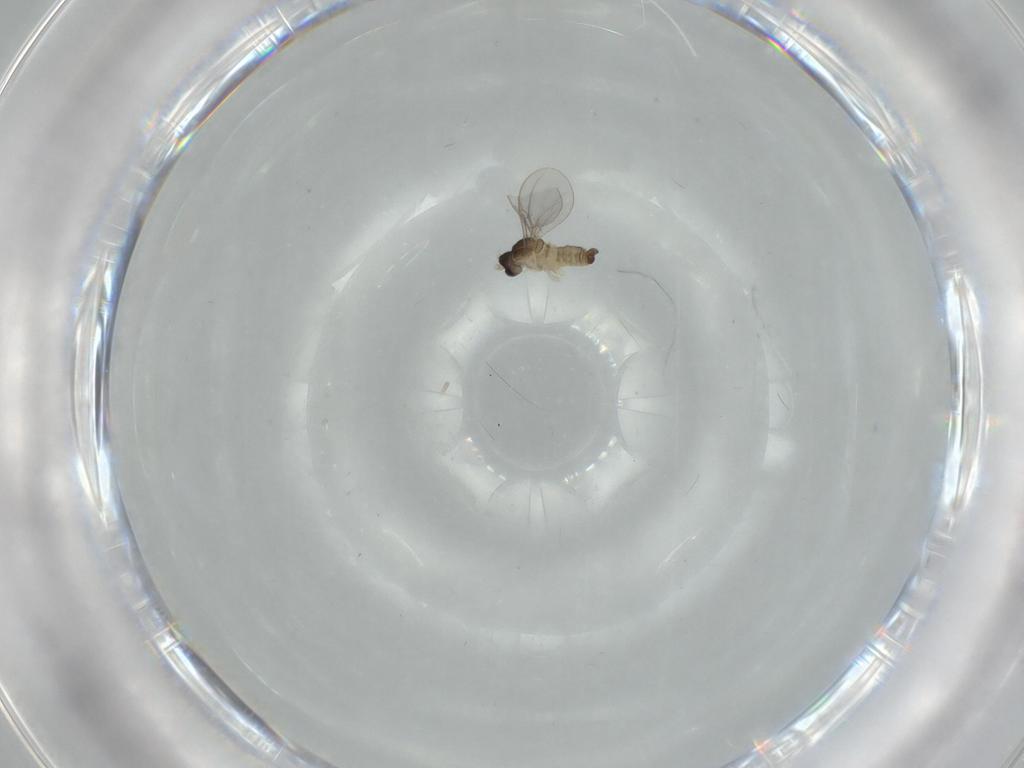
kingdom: Animalia
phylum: Arthropoda
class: Insecta
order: Diptera
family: Cecidomyiidae
